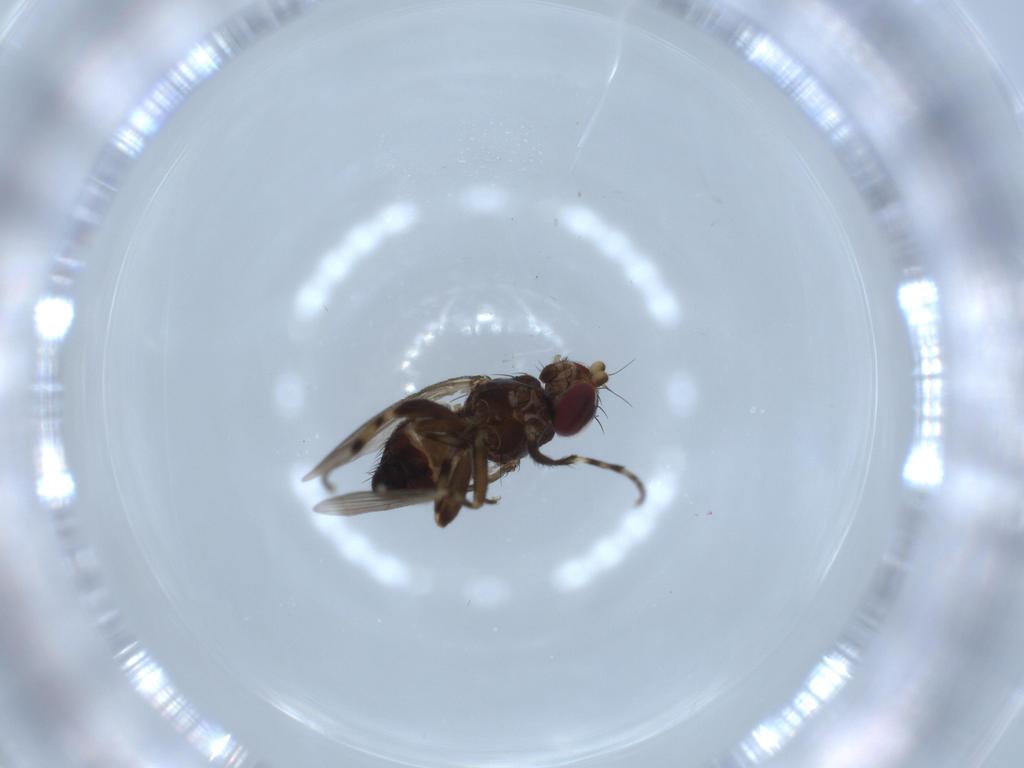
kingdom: Animalia
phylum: Arthropoda
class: Insecta
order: Diptera
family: Heleomyzidae
